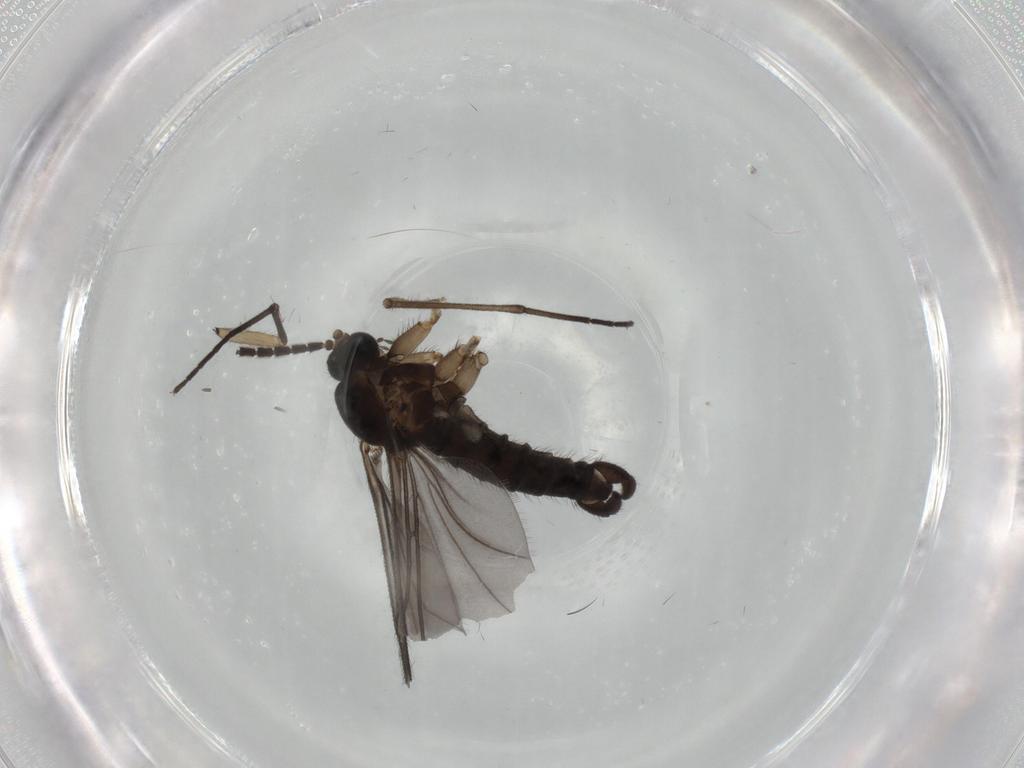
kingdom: Animalia
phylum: Arthropoda
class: Insecta
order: Diptera
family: Sciaridae
